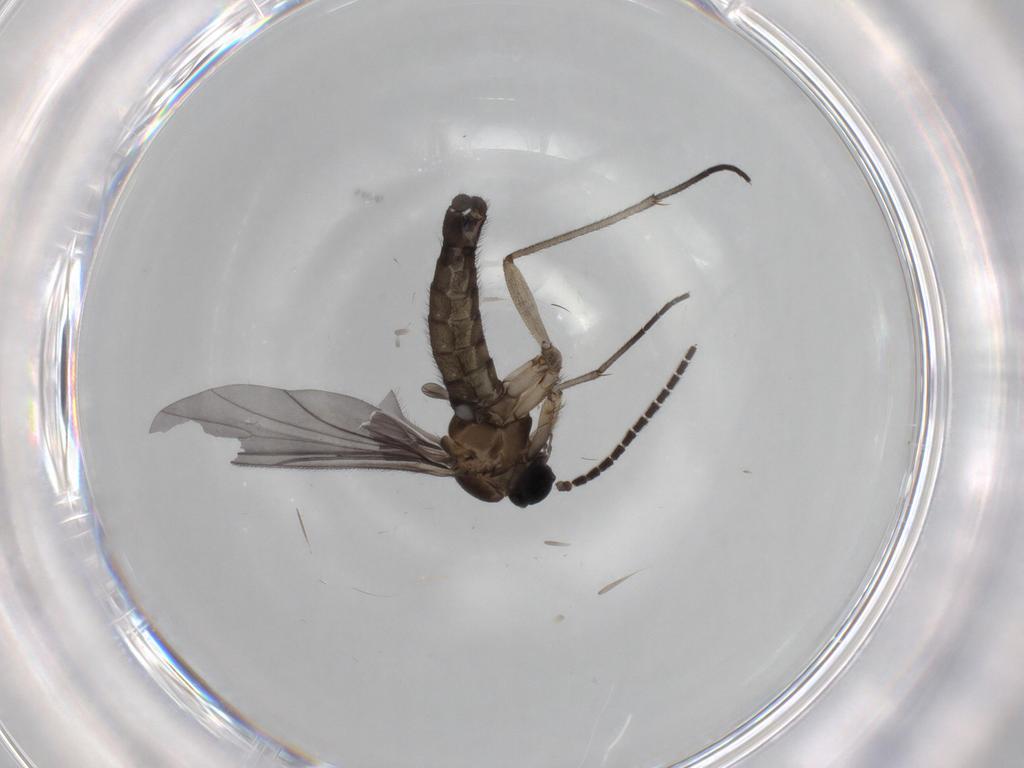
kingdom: Animalia
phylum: Arthropoda
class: Insecta
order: Diptera
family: Sciaridae
